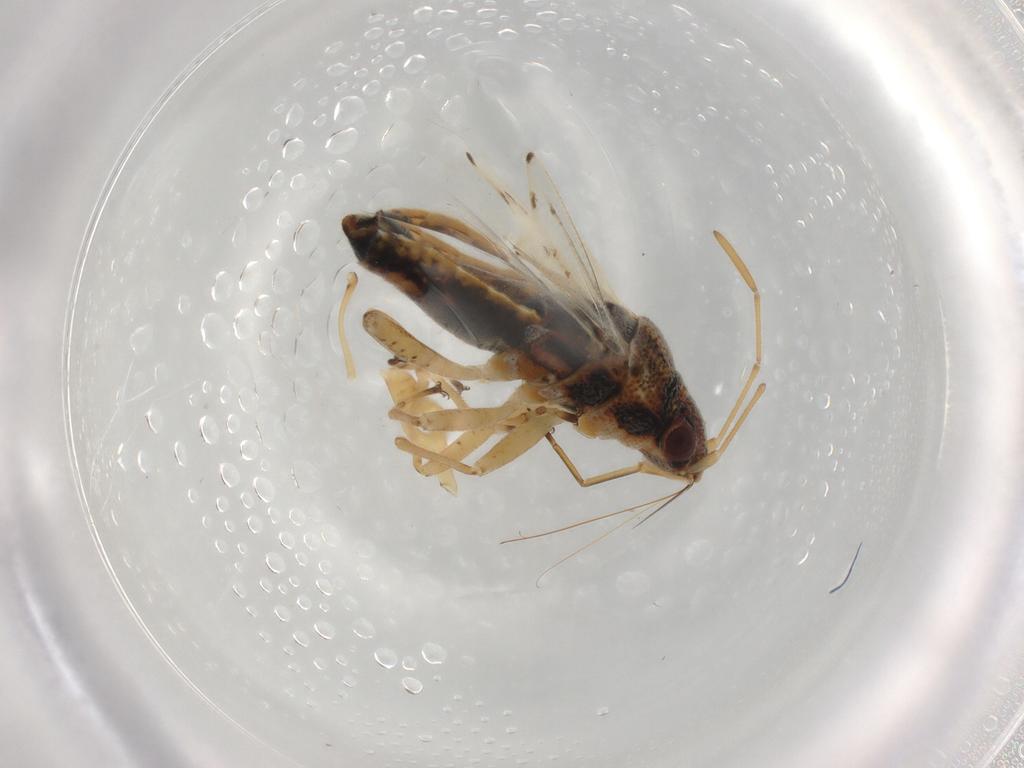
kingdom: Animalia
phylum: Arthropoda
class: Insecta
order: Hemiptera
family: Lygaeidae
